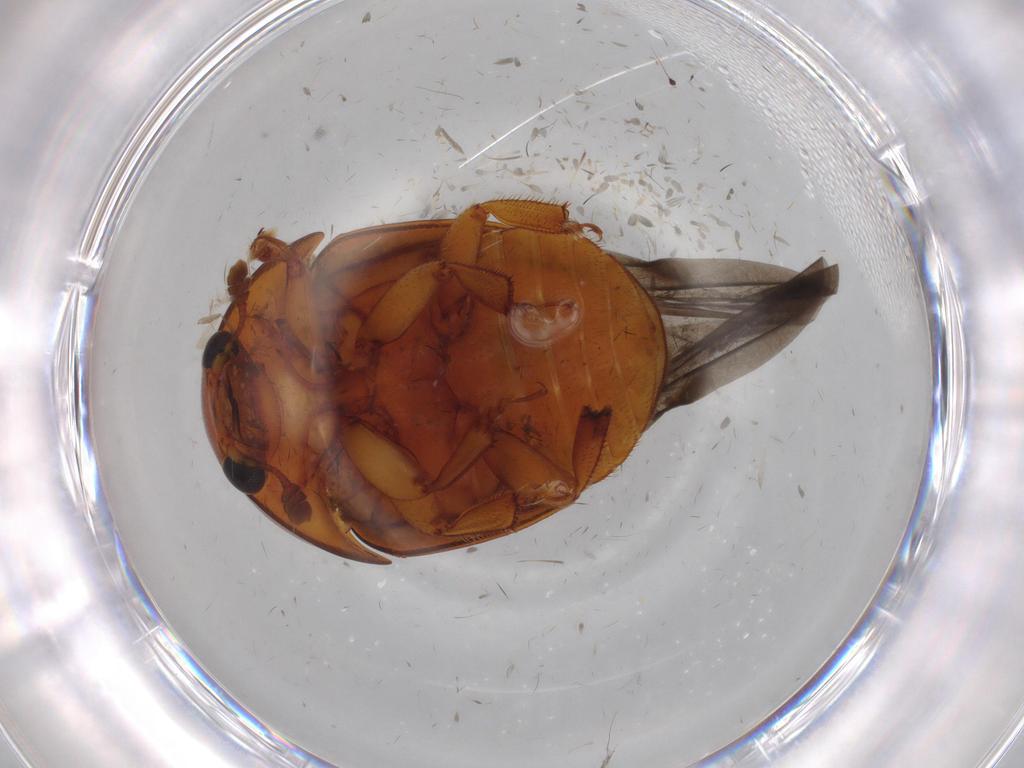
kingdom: Animalia
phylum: Arthropoda
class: Insecta
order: Coleoptera
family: Nitidulidae
